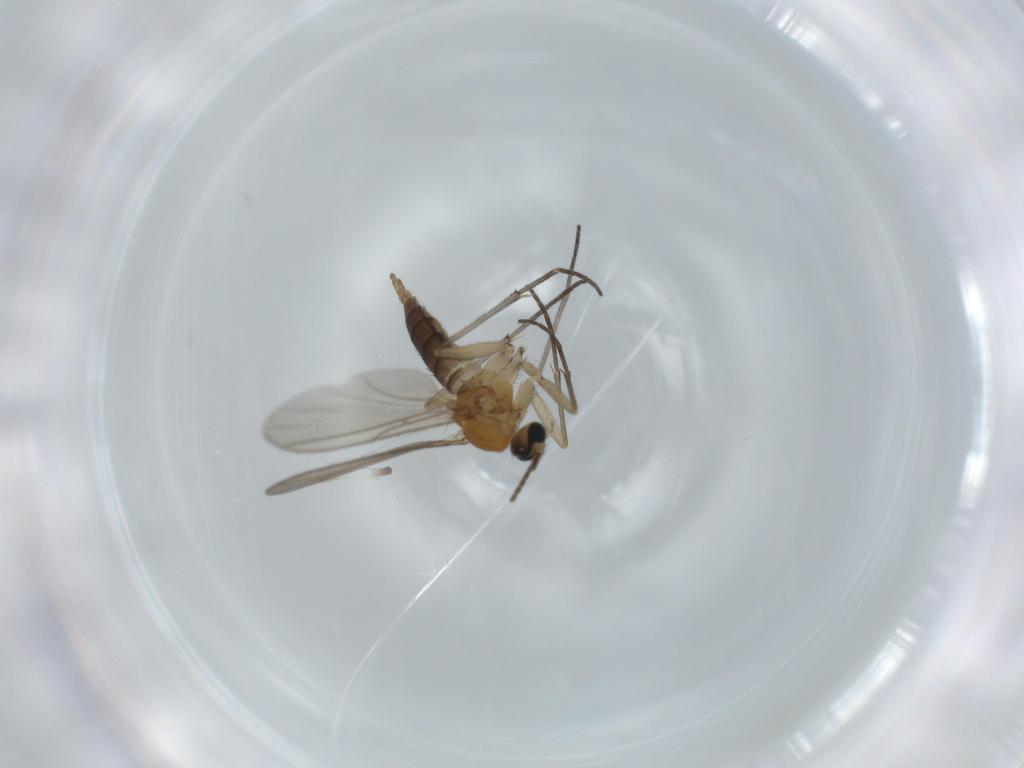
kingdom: Animalia
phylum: Arthropoda
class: Insecta
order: Diptera
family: Sciaridae
